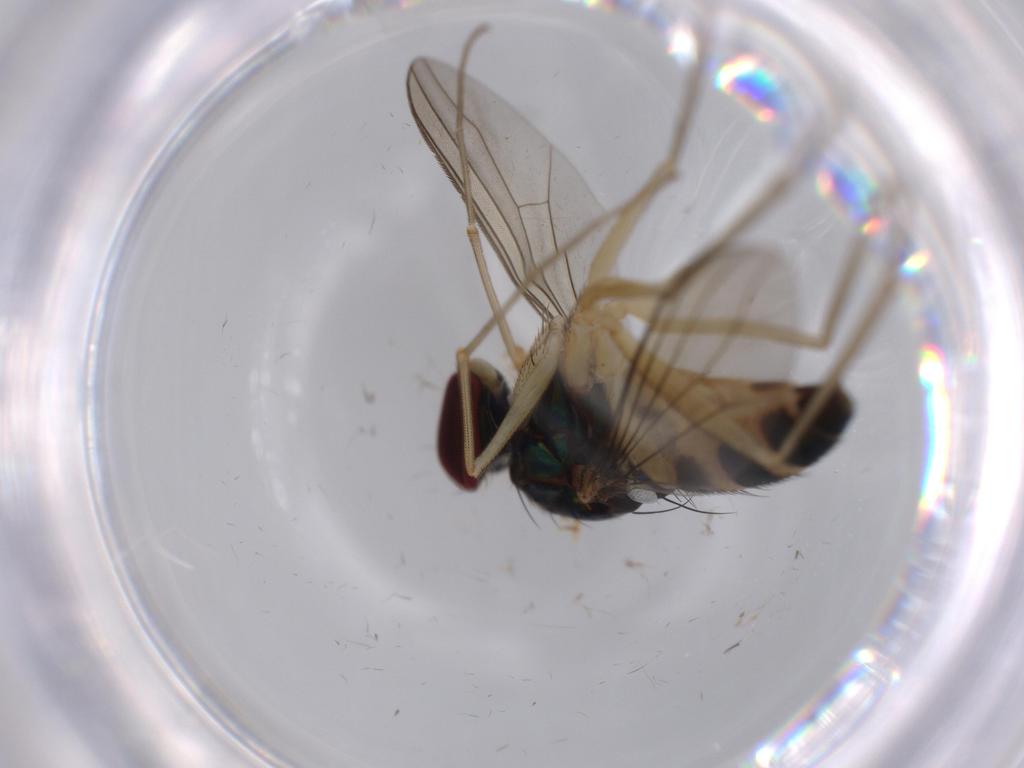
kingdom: Animalia
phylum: Arthropoda
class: Insecta
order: Diptera
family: Dolichopodidae
